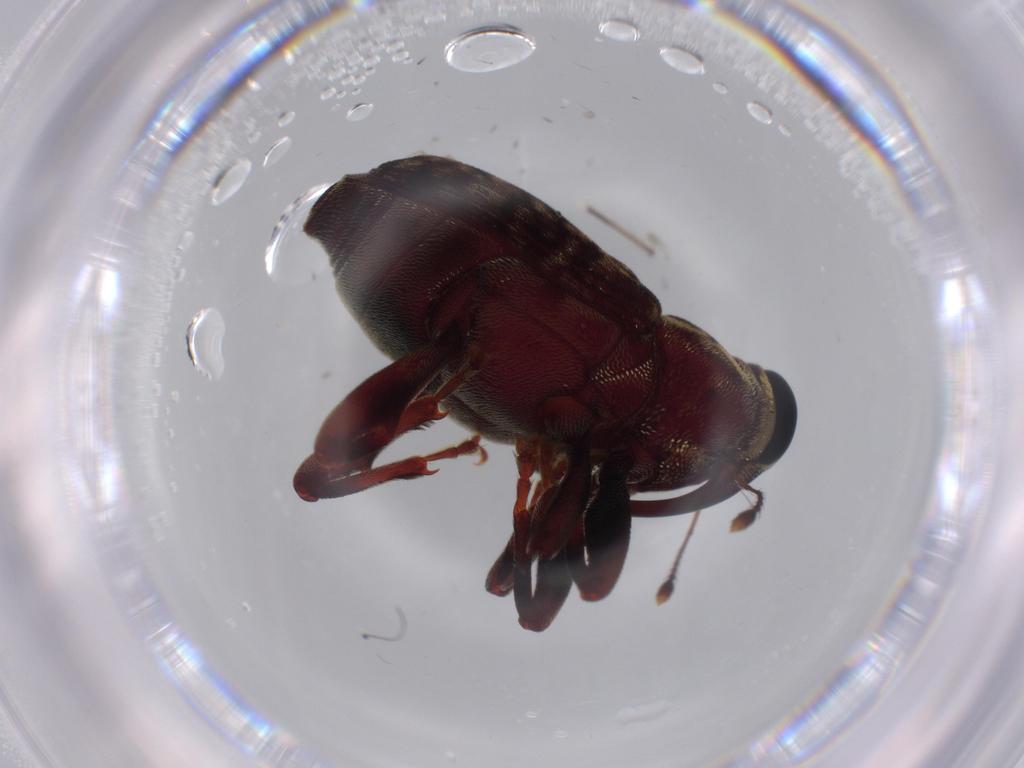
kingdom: Animalia
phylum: Arthropoda
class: Insecta
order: Coleoptera
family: Curculionidae
